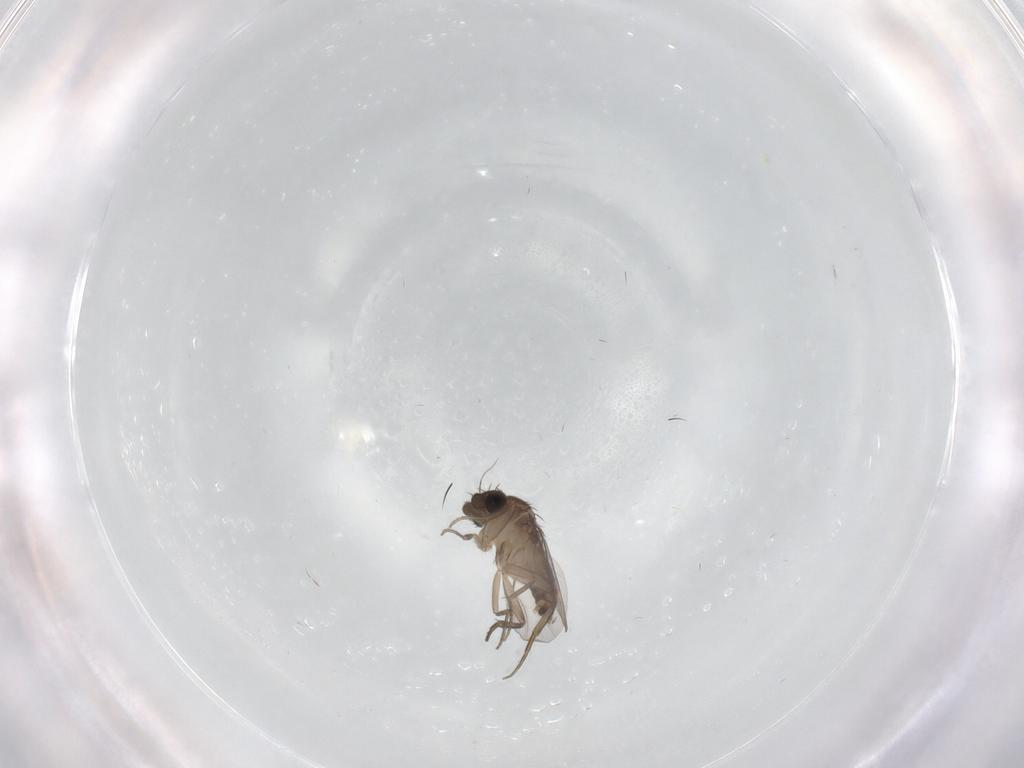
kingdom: Animalia
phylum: Arthropoda
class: Insecta
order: Diptera
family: Phoridae
